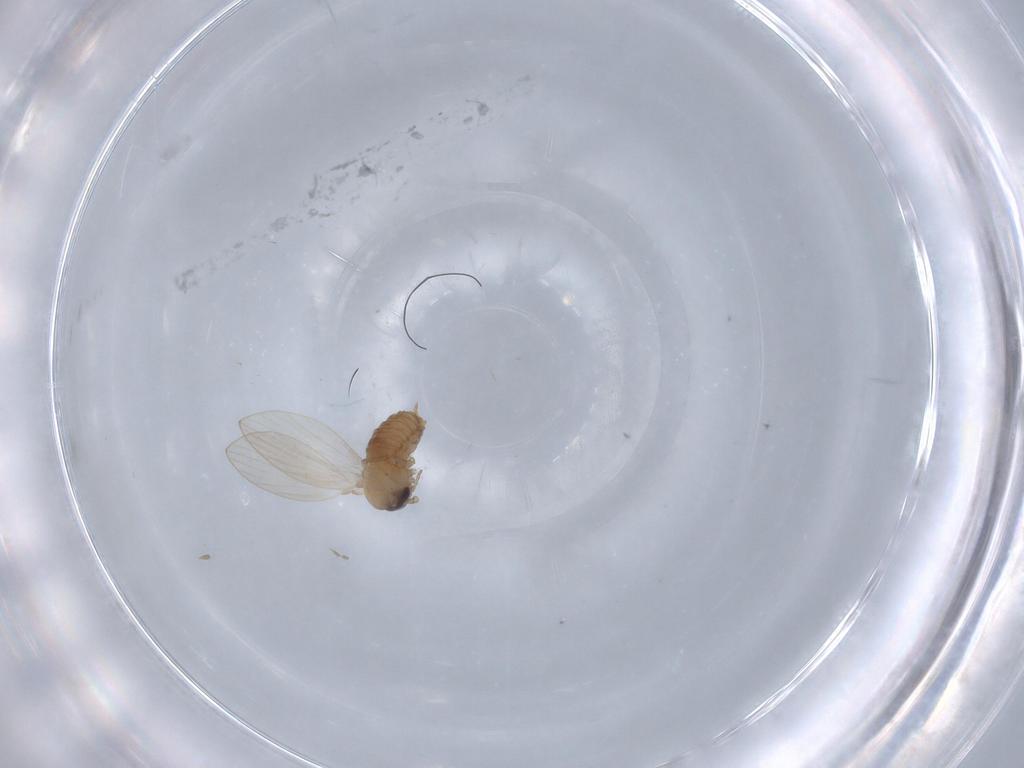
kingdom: Animalia
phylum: Arthropoda
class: Insecta
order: Diptera
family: Psychodidae
